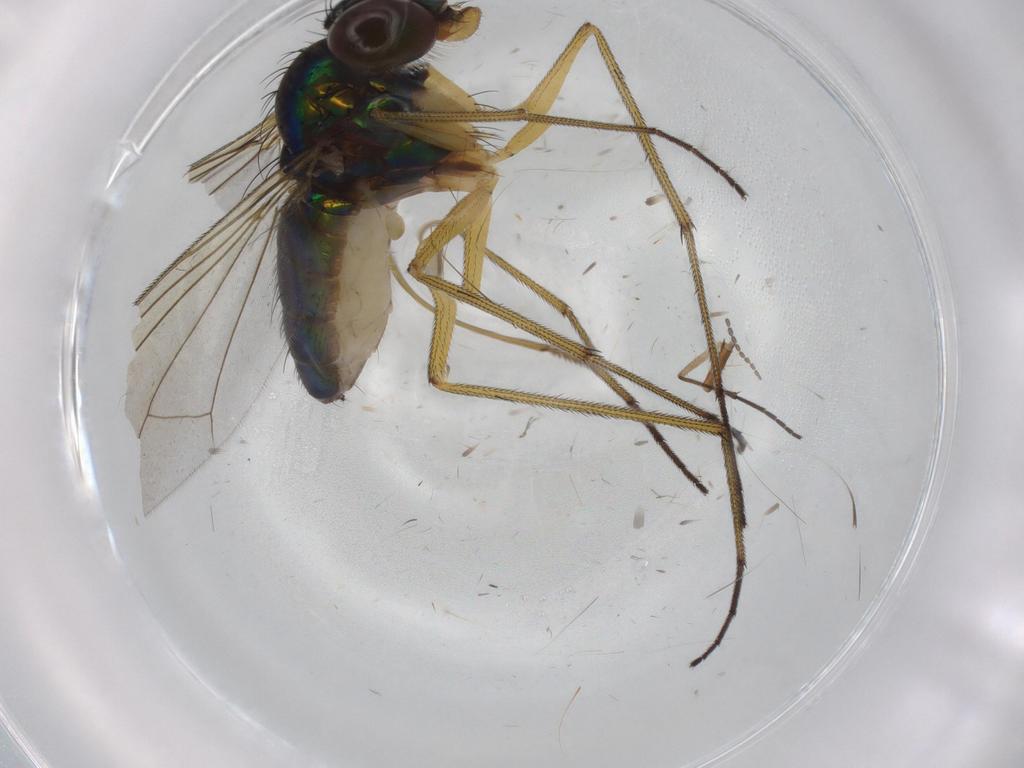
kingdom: Animalia
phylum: Arthropoda
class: Insecta
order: Diptera
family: Dolichopodidae
